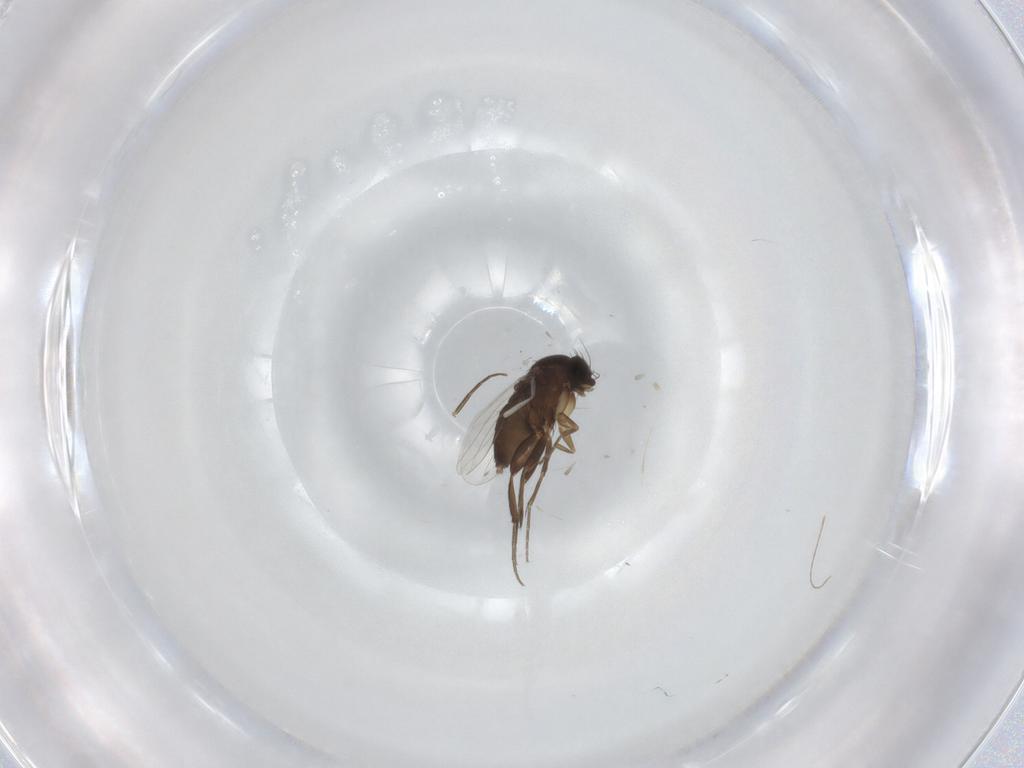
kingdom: Animalia
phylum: Arthropoda
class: Insecta
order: Diptera
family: Phoridae
